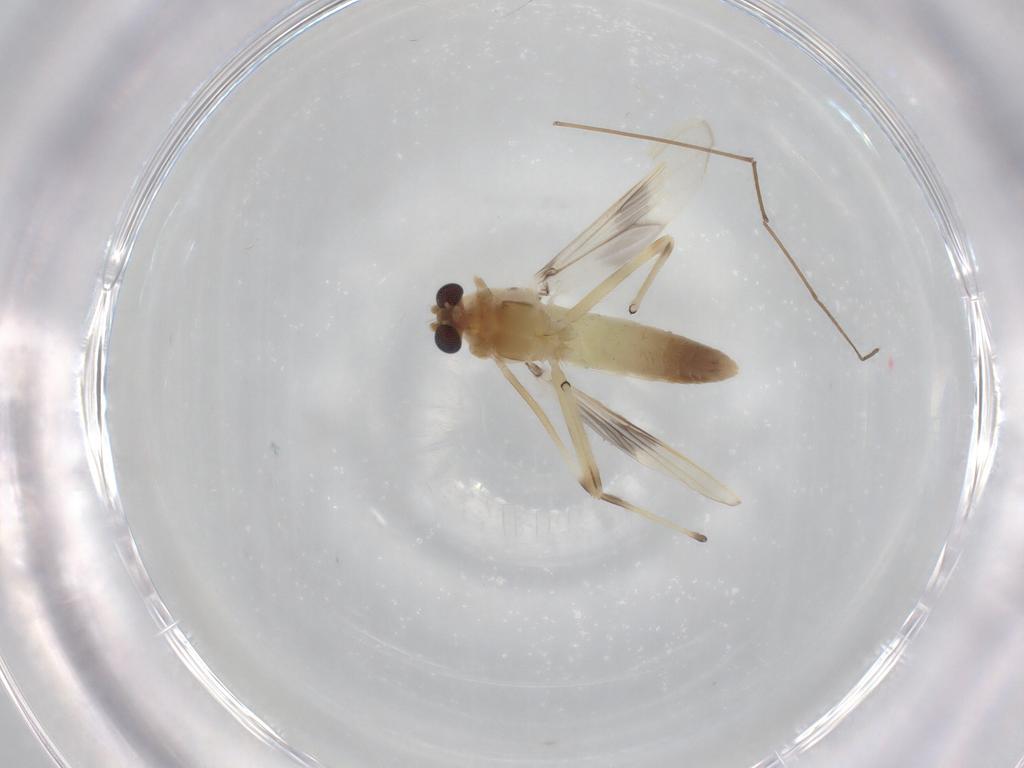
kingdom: Animalia
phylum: Arthropoda
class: Insecta
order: Diptera
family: Chironomidae
